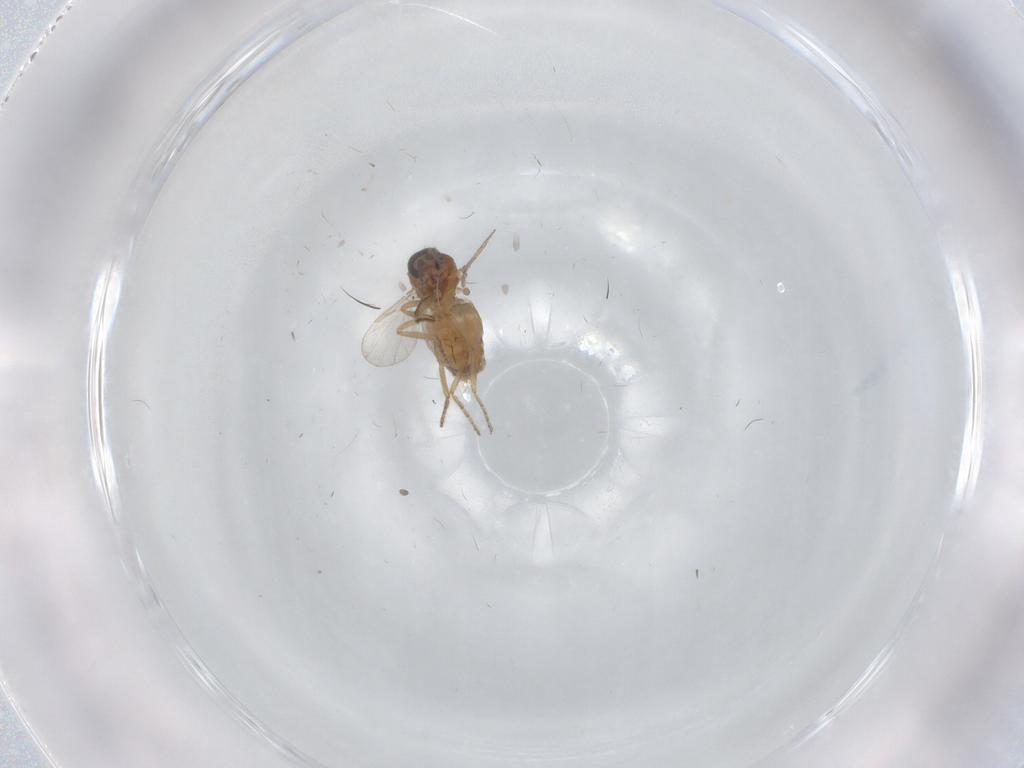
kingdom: Animalia
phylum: Arthropoda
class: Insecta
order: Diptera
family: Ceratopogonidae
